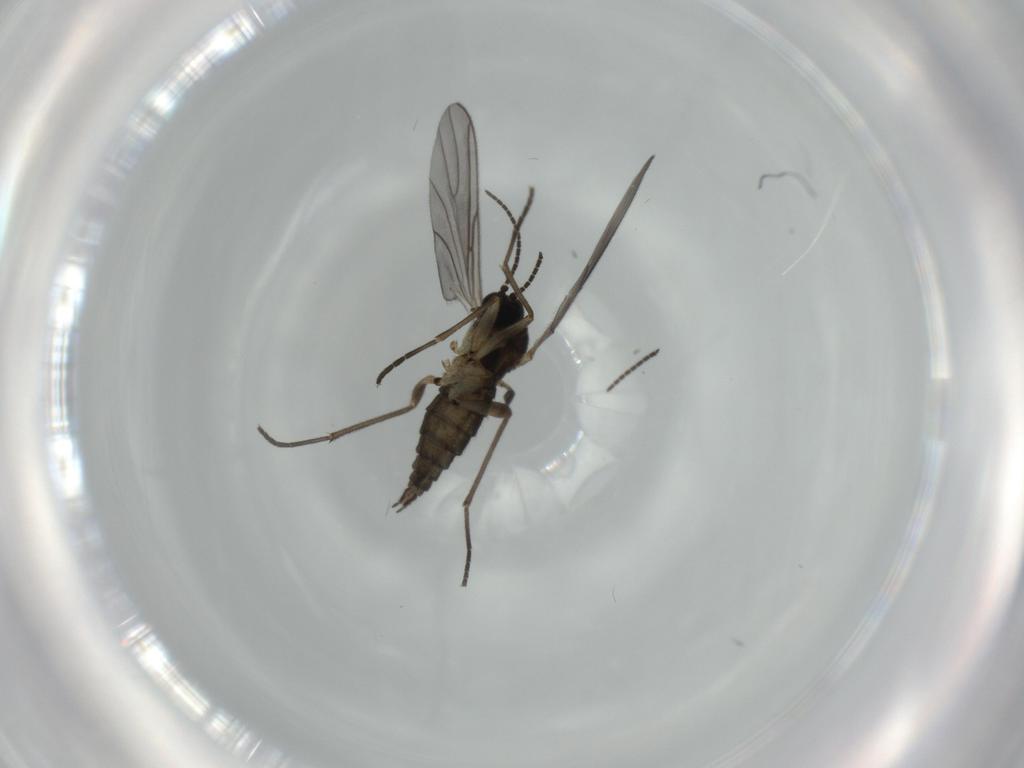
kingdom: Animalia
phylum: Arthropoda
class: Insecta
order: Diptera
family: Sciaridae
